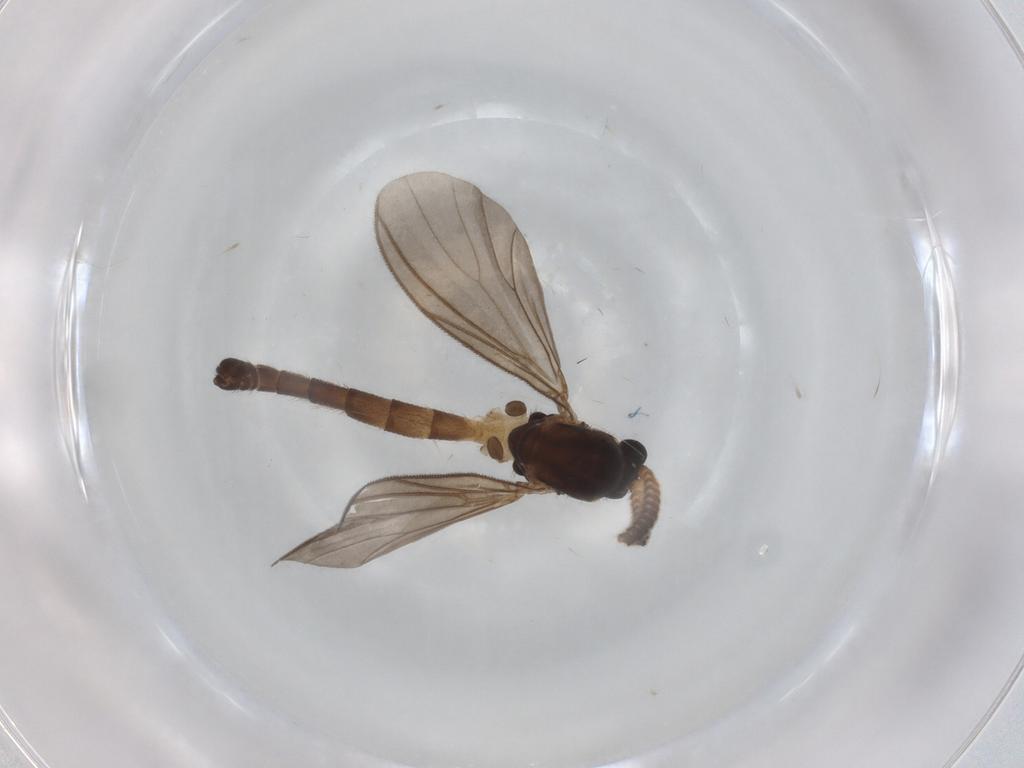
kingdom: Animalia
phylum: Arthropoda
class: Insecta
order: Diptera
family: Mycetophilidae
